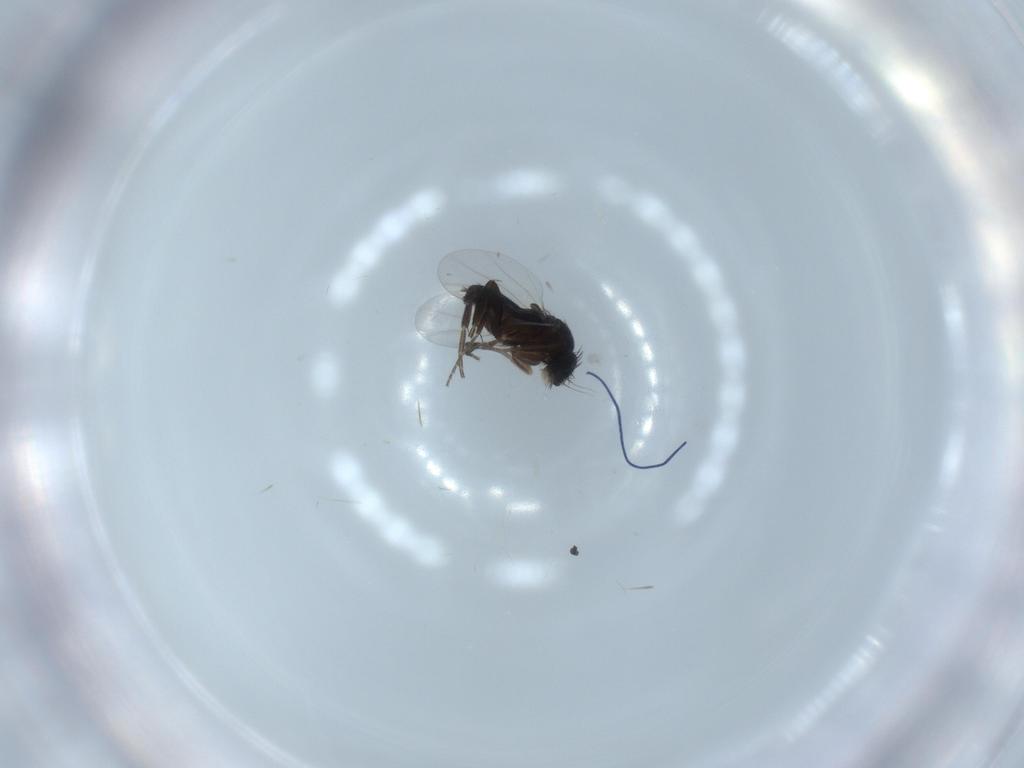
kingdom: Animalia
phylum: Arthropoda
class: Insecta
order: Diptera
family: Phoridae
